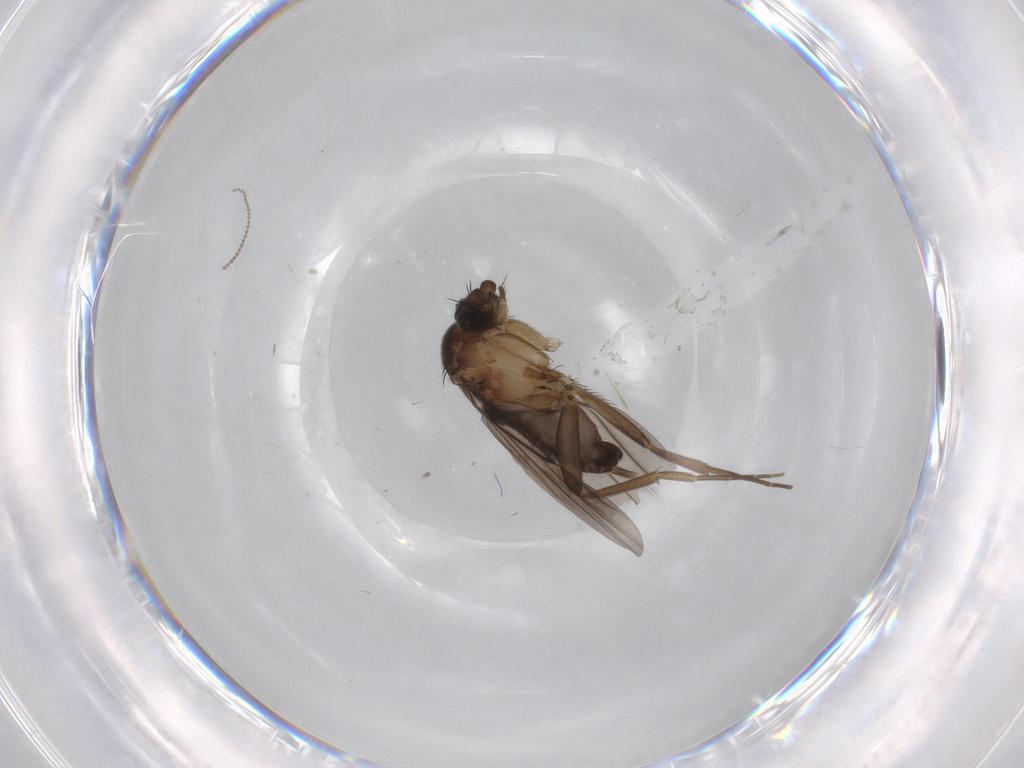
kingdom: Animalia
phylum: Arthropoda
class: Insecta
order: Diptera
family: Cecidomyiidae
